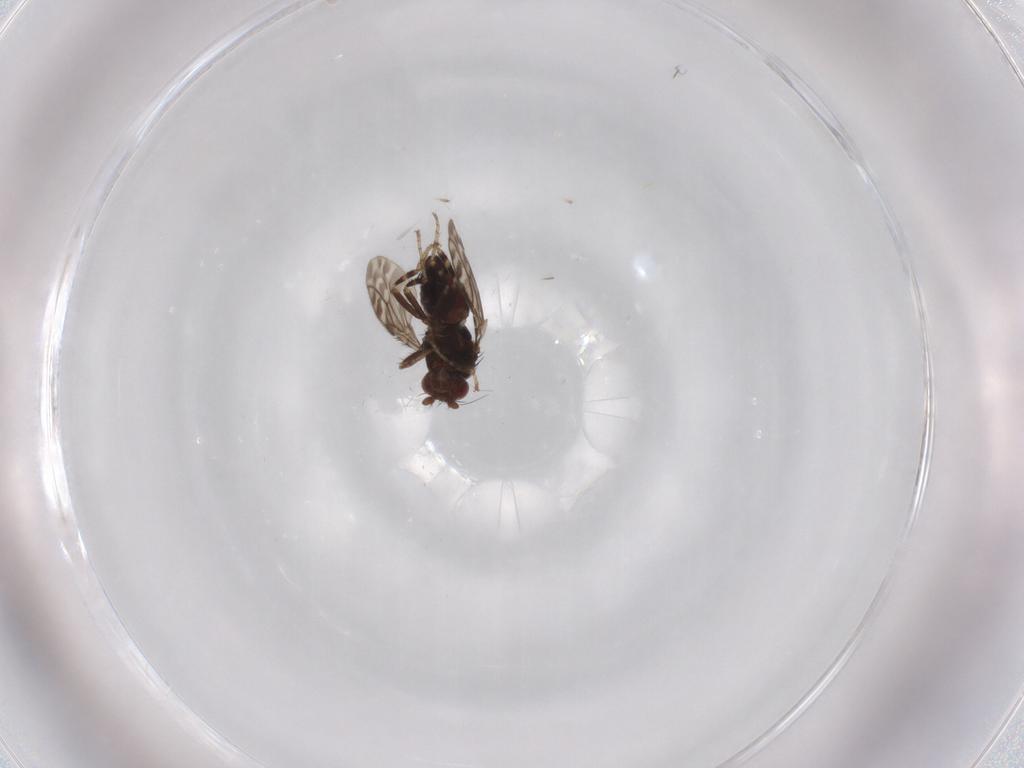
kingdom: Animalia
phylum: Arthropoda
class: Insecta
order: Diptera
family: Sphaeroceridae
